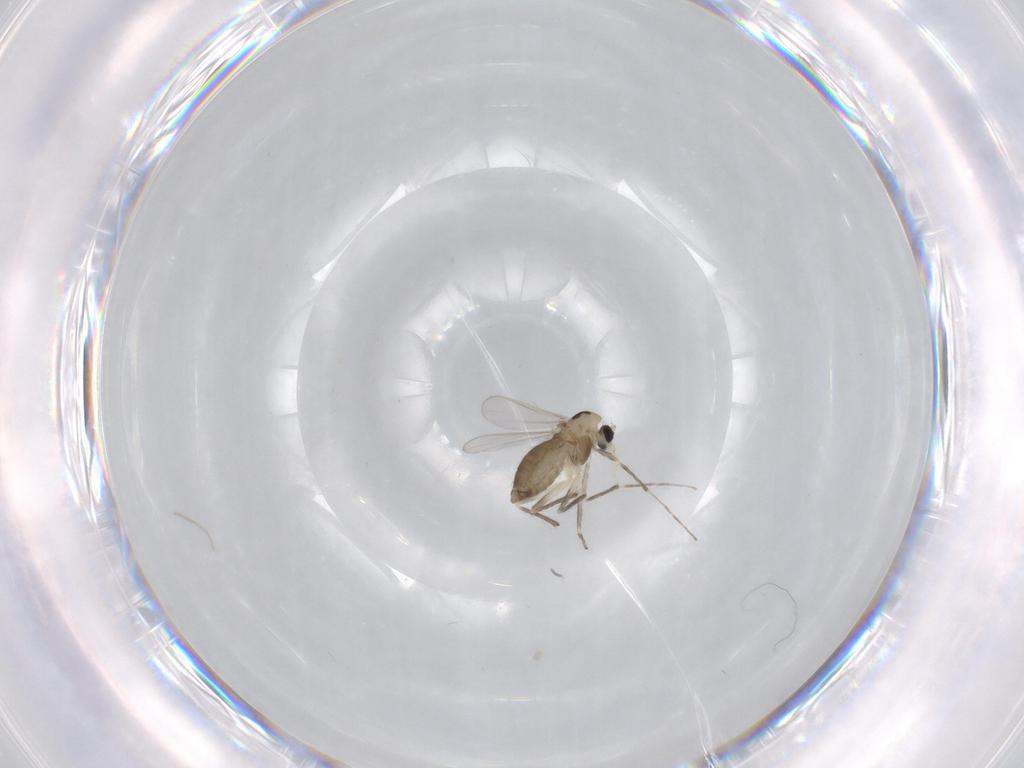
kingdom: Animalia
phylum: Arthropoda
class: Insecta
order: Diptera
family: Chironomidae
